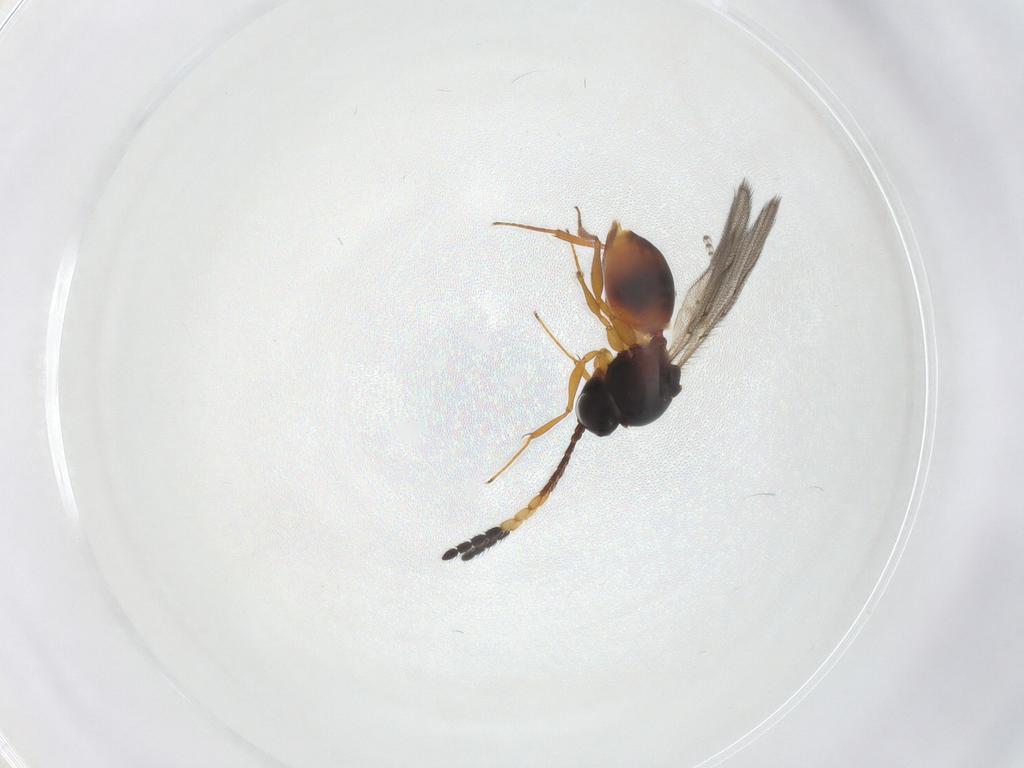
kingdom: Animalia
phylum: Arthropoda
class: Insecta
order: Hymenoptera
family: Figitidae
